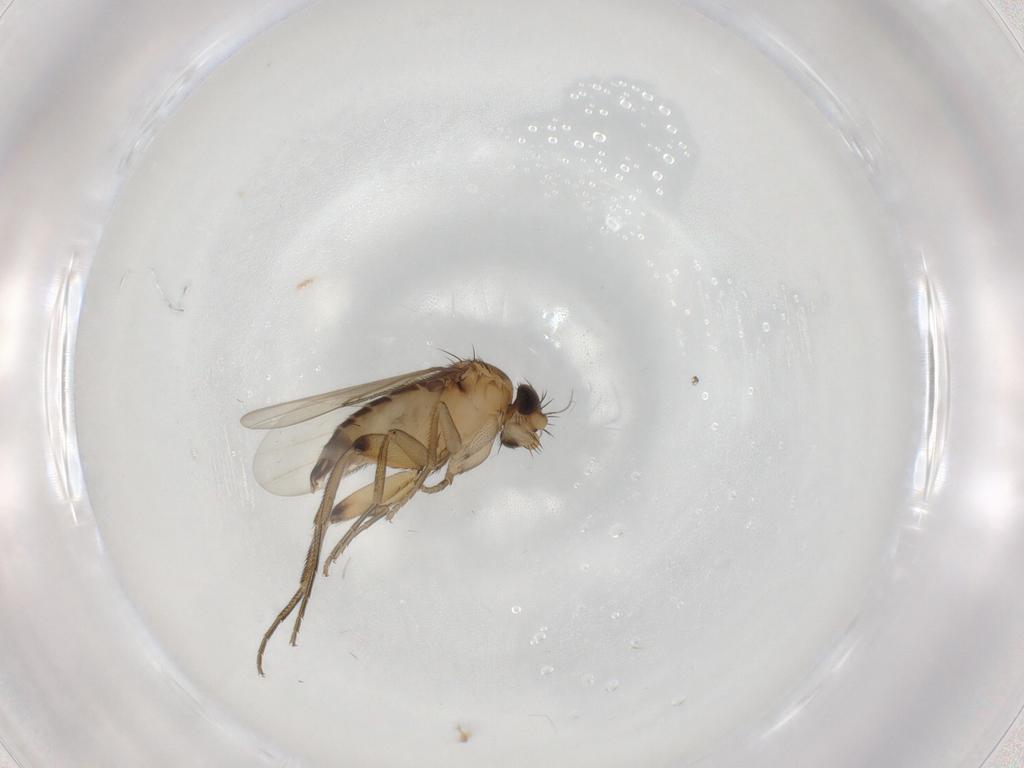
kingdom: Animalia
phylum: Arthropoda
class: Insecta
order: Diptera
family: Phoridae
